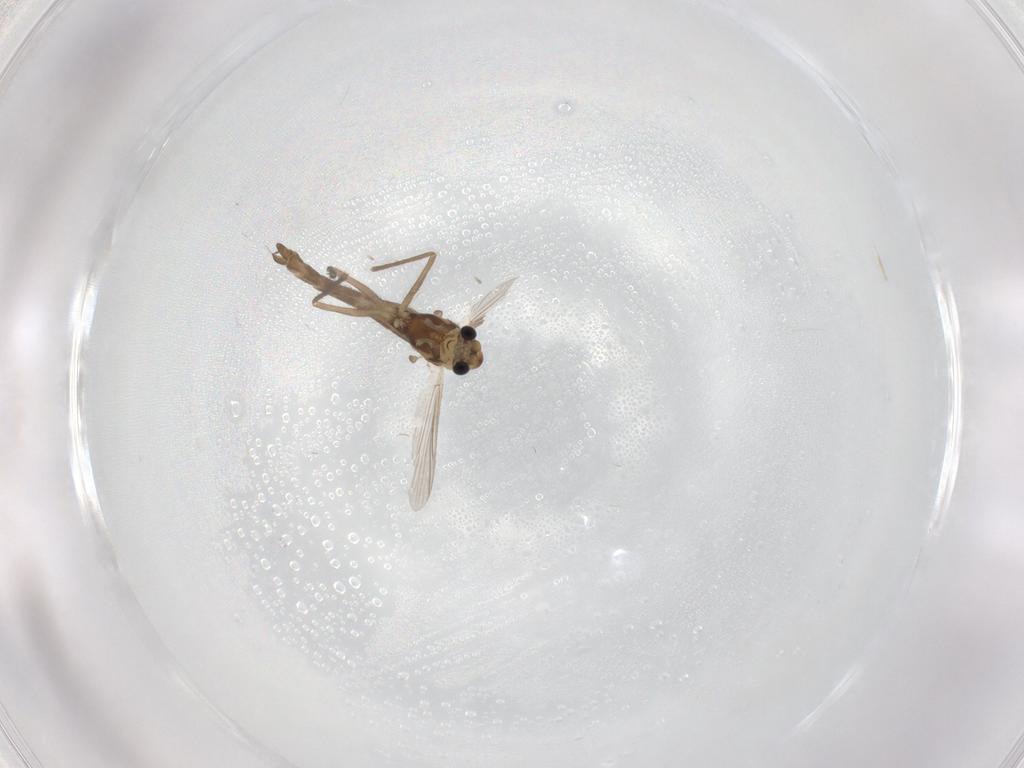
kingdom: Animalia
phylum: Arthropoda
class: Insecta
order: Diptera
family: Chironomidae
